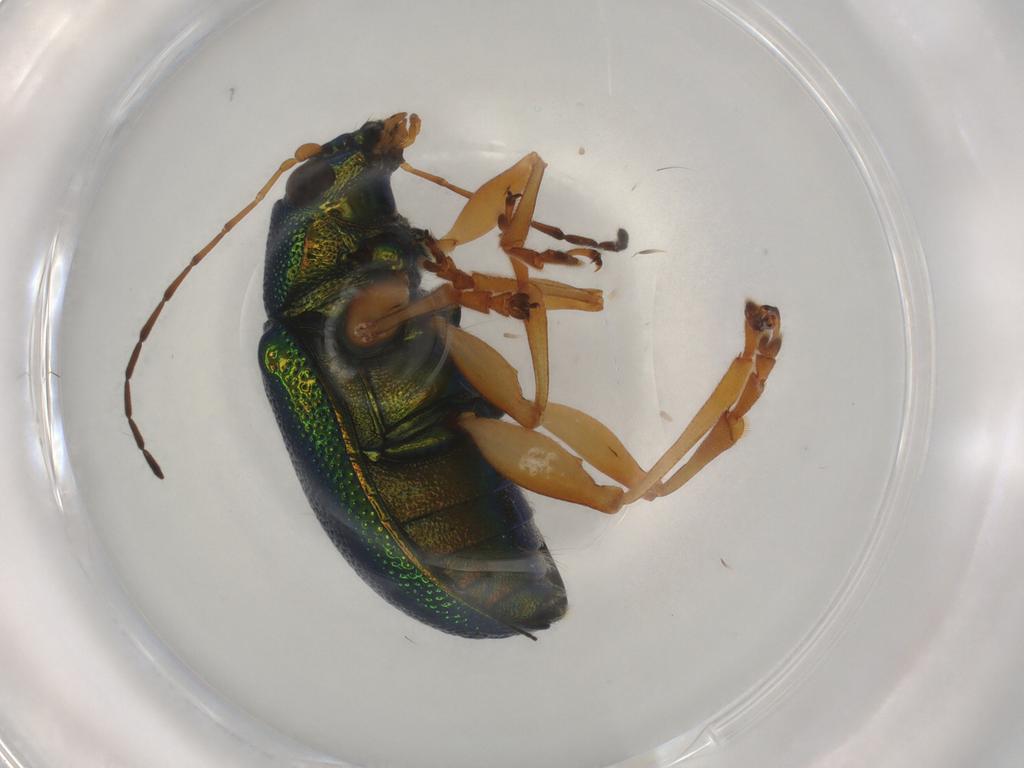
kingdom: Animalia
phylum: Arthropoda
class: Insecta
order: Coleoptera
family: Chrysomelidae
